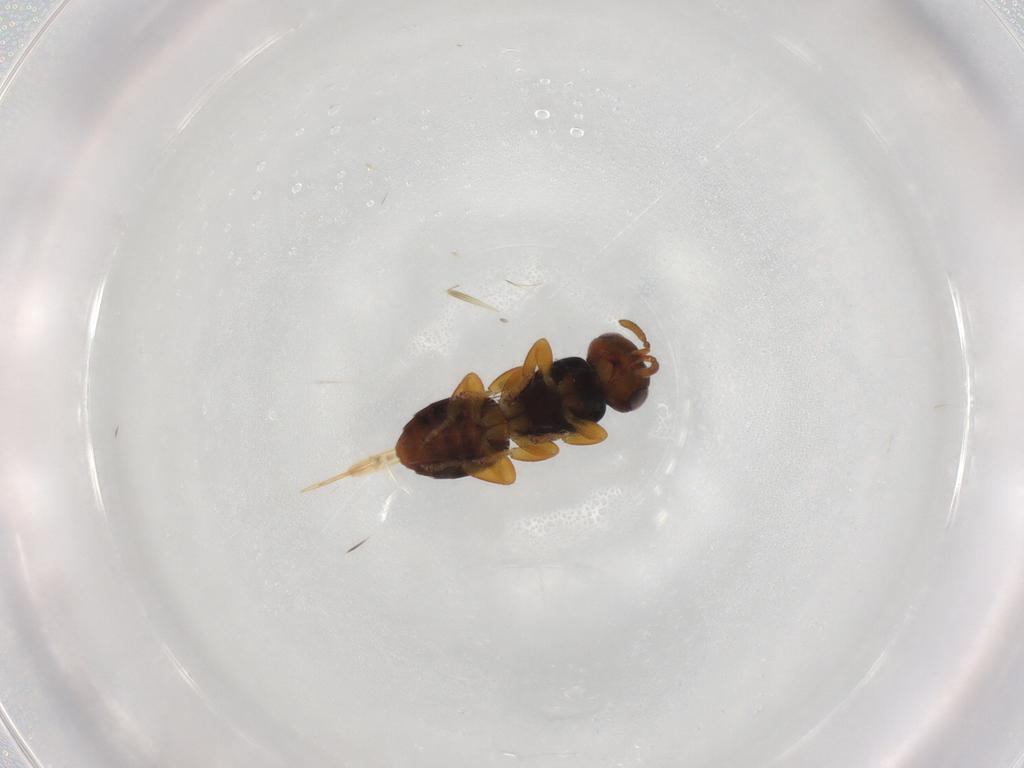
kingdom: Animalia
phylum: Arthropoda
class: Insecta
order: Hymenoptera
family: Scelionidae
